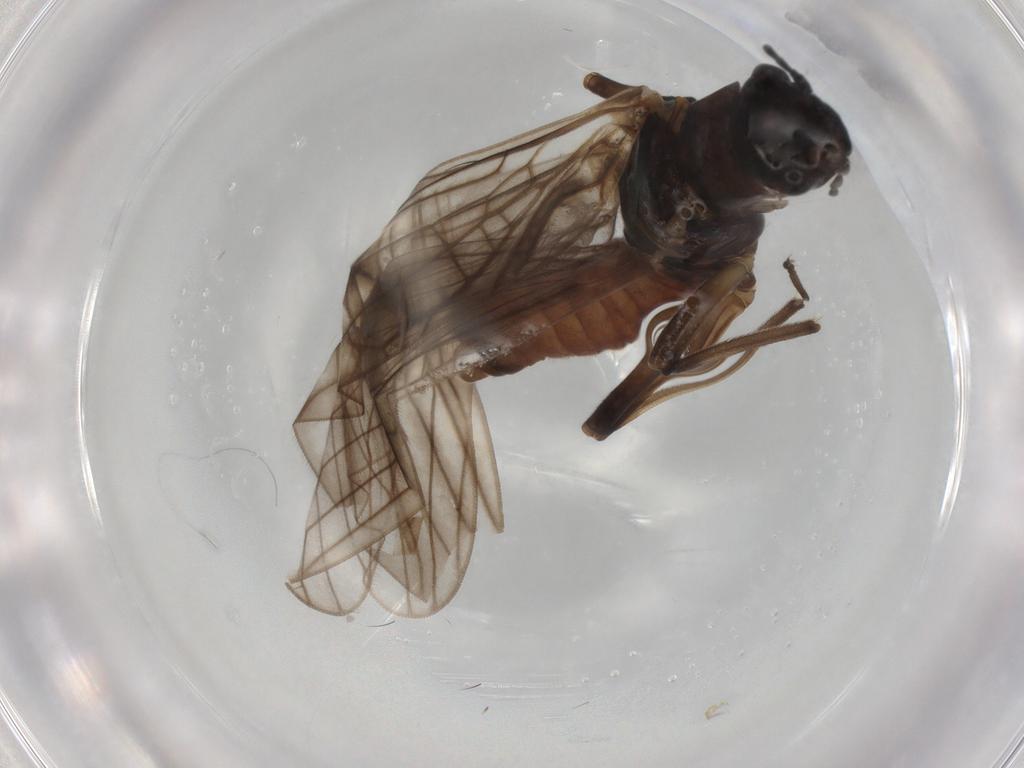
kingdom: Animalia
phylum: Arthropoda
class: Insecta
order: Plecoptera
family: Nemouridae
